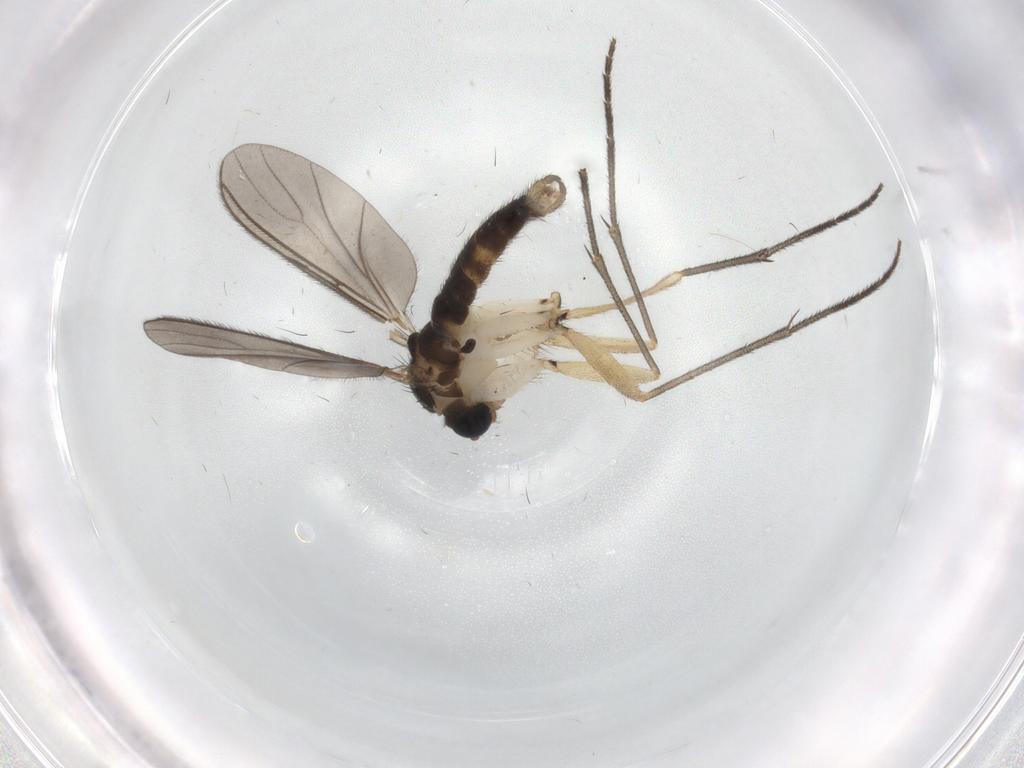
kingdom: Animalia
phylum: Arthropoda
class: Insecta
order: Diptera
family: Sciaridae
